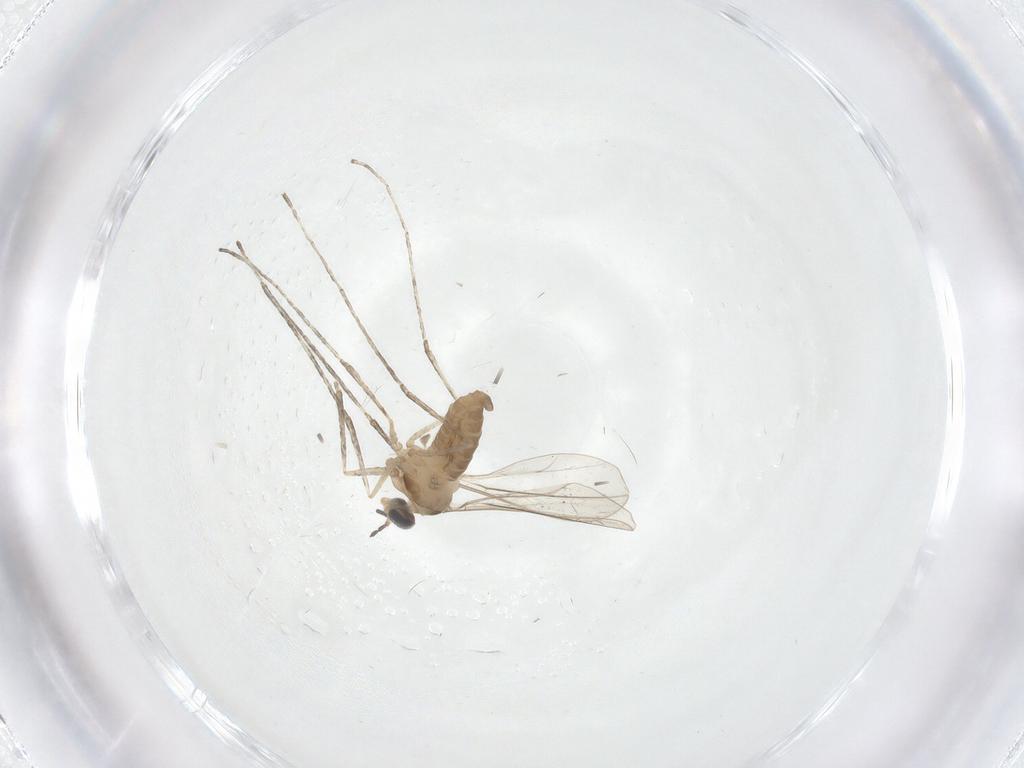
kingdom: Animalia
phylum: Arthropoda
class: Insecta
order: Diptera
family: Cecidomyiidae
